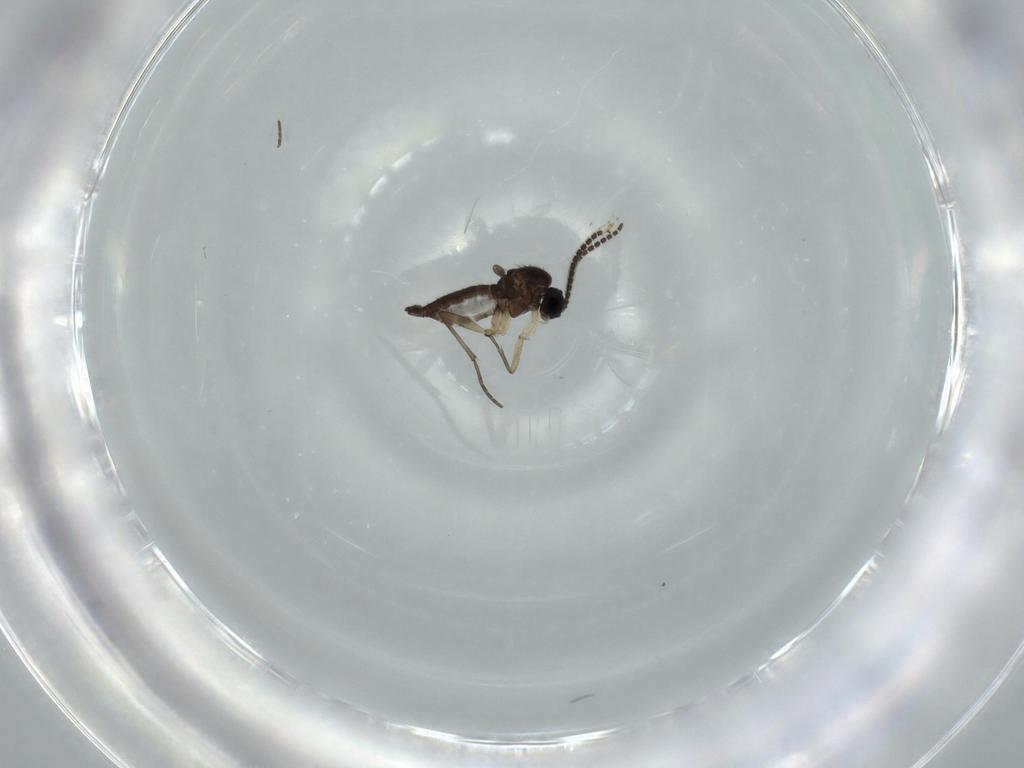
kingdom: Animalia
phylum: Arthropoda
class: Insecta
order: Diptera
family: Sciaridae
